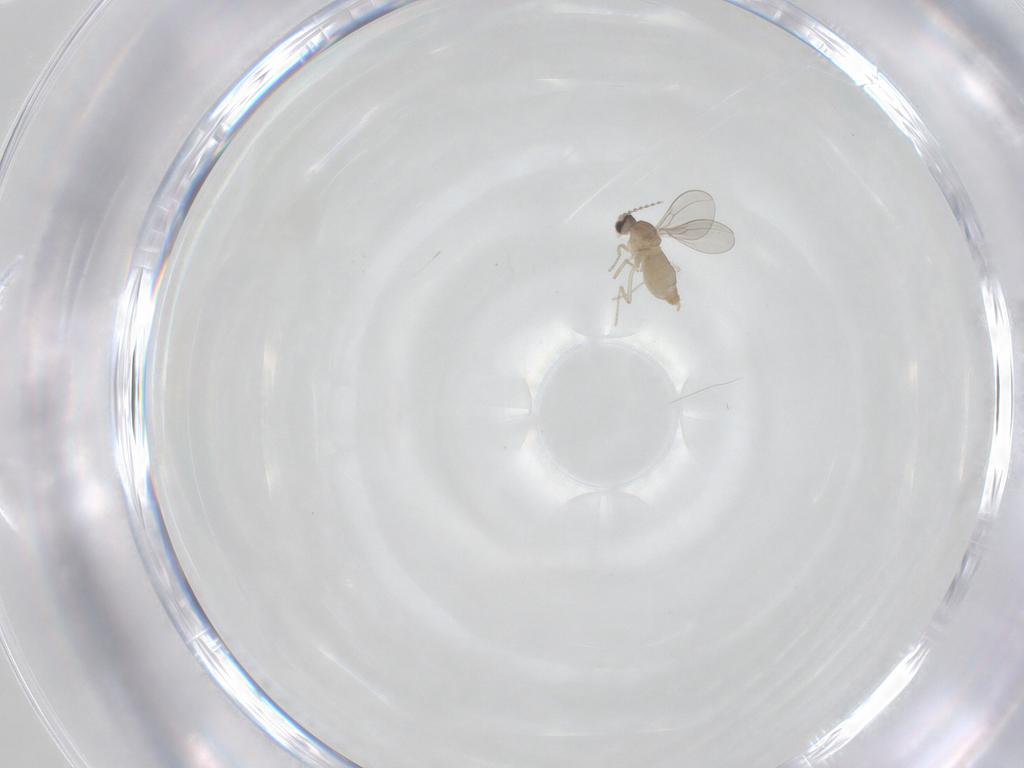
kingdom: Animalia
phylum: Arthropoda
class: Insecta
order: Diptera
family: Cecidomyiidae
